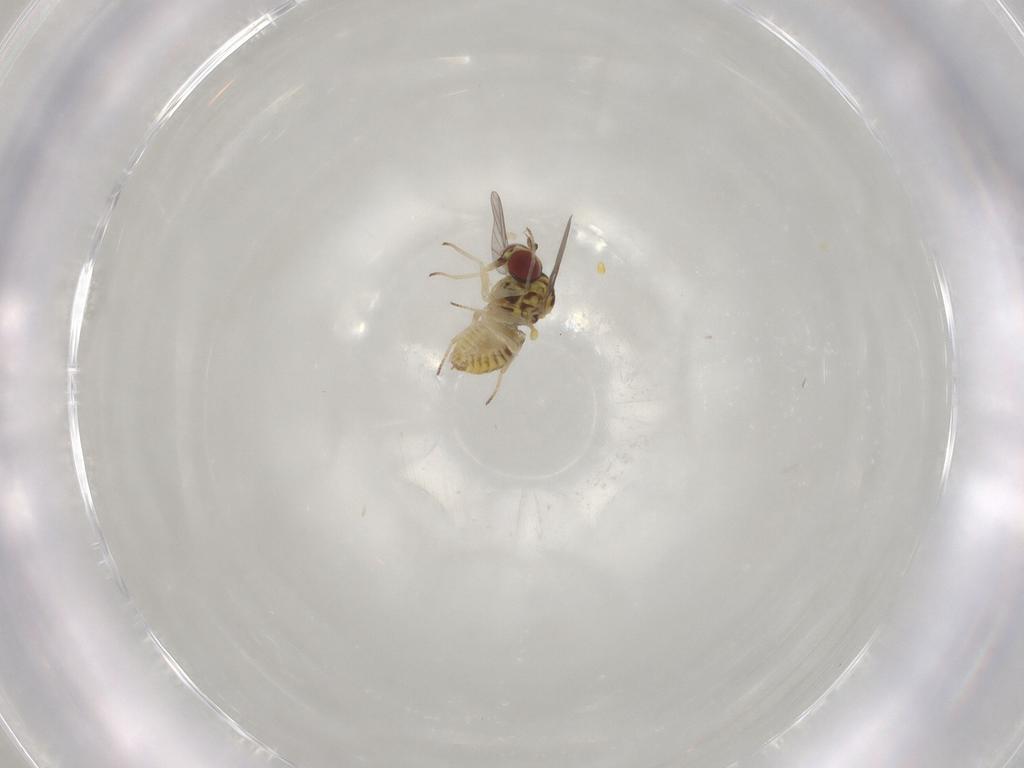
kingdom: Animalia
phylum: Arthropoda
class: Insecta
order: Diptera
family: Bombyliidae
